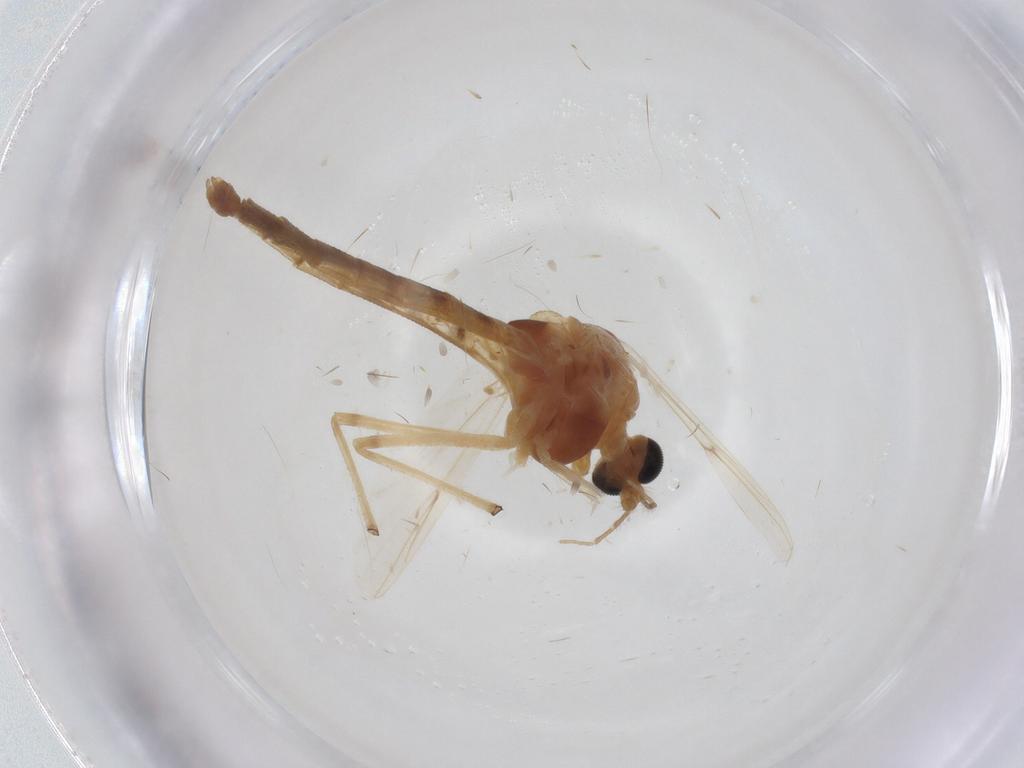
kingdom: Animalia
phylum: Arthropoda
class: Insecta
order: Diptera
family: Chironomidae
